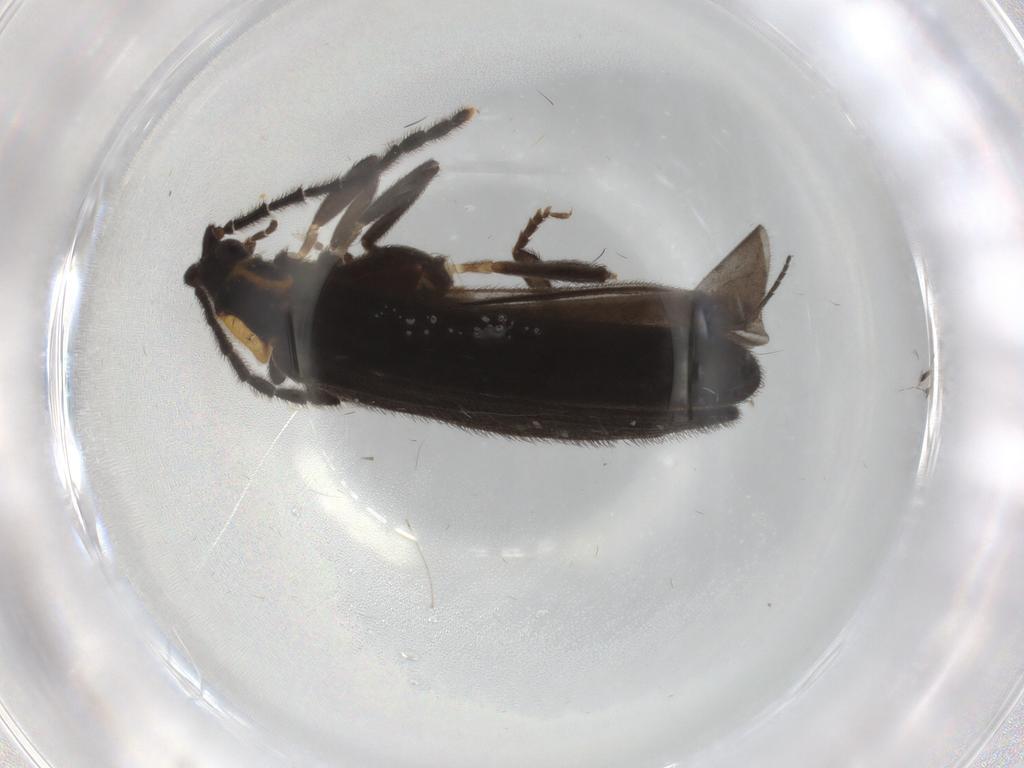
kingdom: Animalia
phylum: Arthropoda
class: Insecta
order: Coleoptera
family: Lycidae
